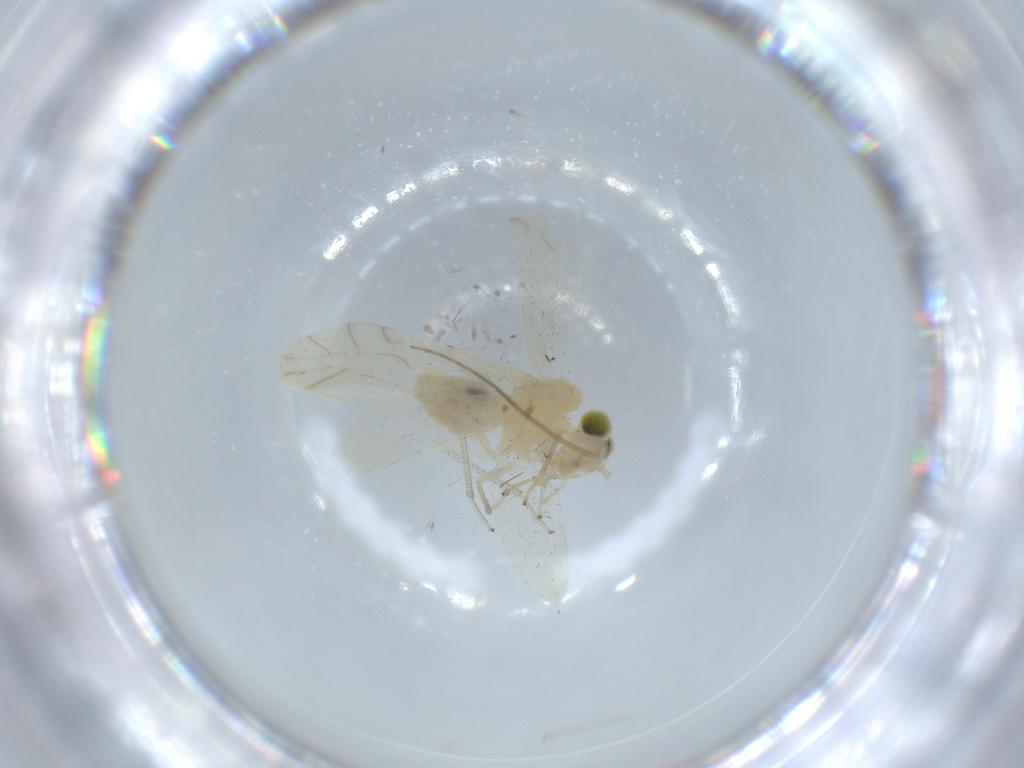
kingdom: Animalia
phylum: Arthropoda
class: Insecta
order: Psocodea
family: Caeciliusidae
